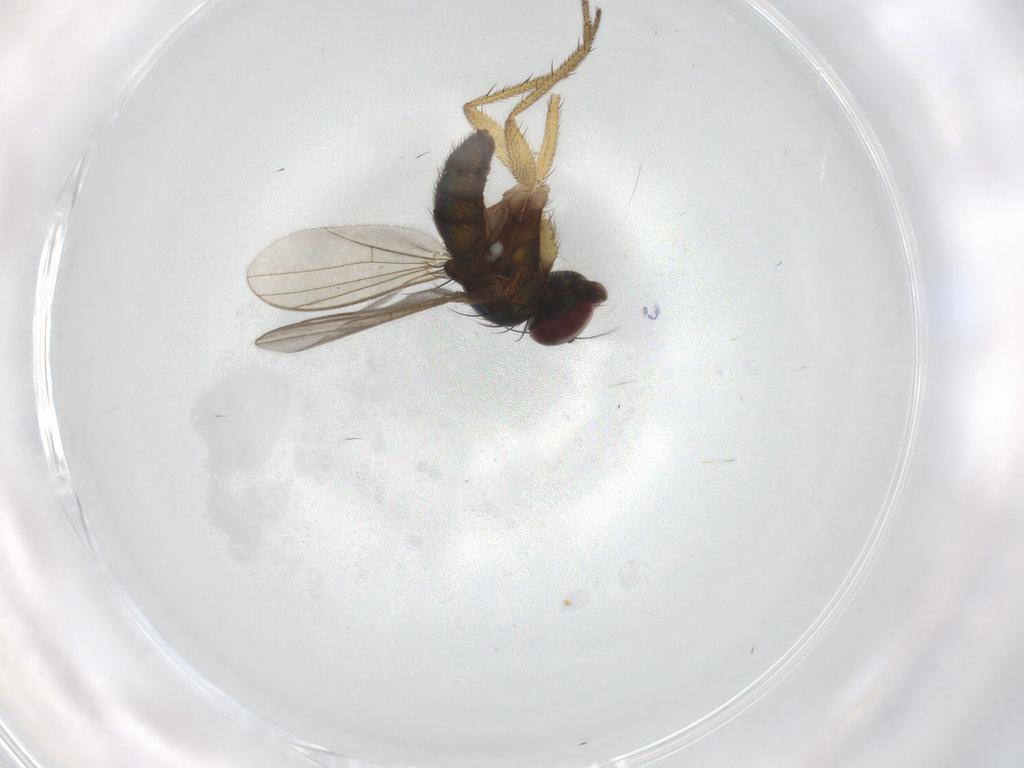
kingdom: Animalia
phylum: Arthropoda
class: Insecta
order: Diptera
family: Dolichopodidae
